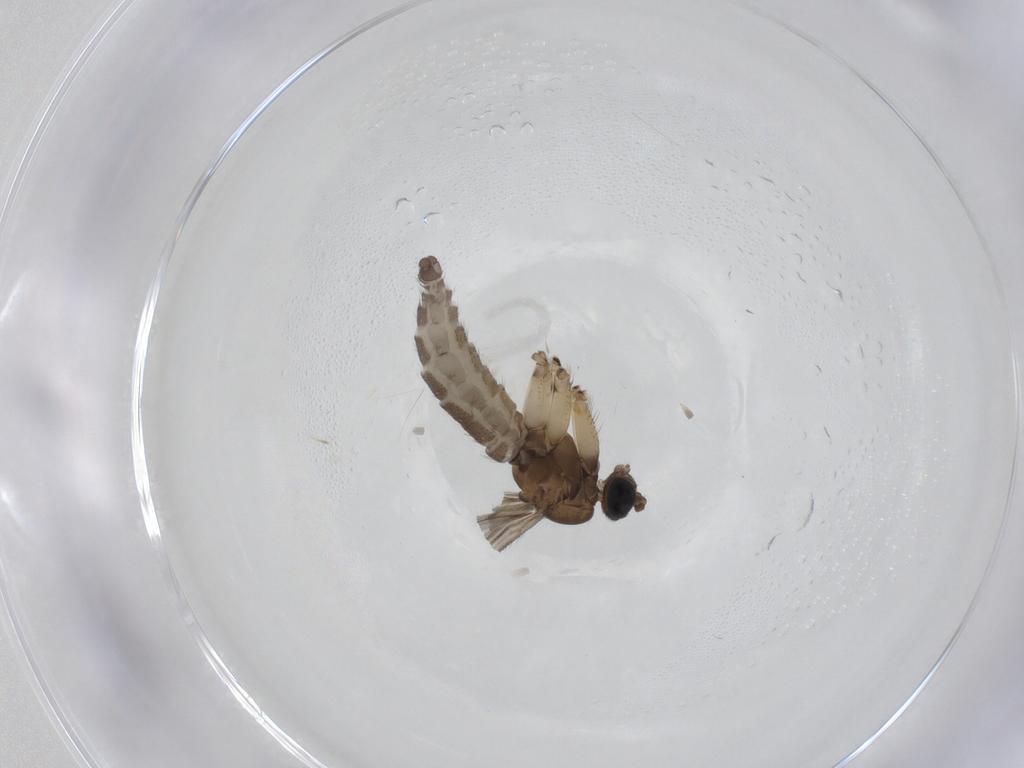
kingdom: Animalia
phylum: Arthropoda
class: Insecta
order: Diptera
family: Sciaridae
